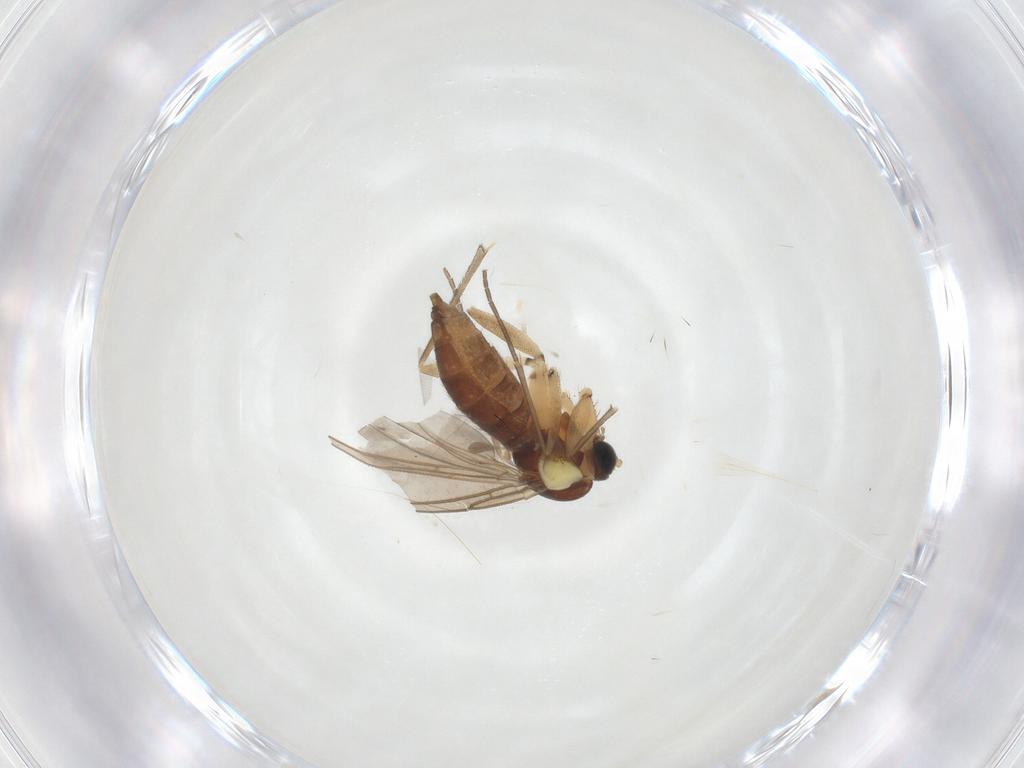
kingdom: Animalia
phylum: Arthropoda
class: Insecta
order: Diptera
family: Sciaridae
